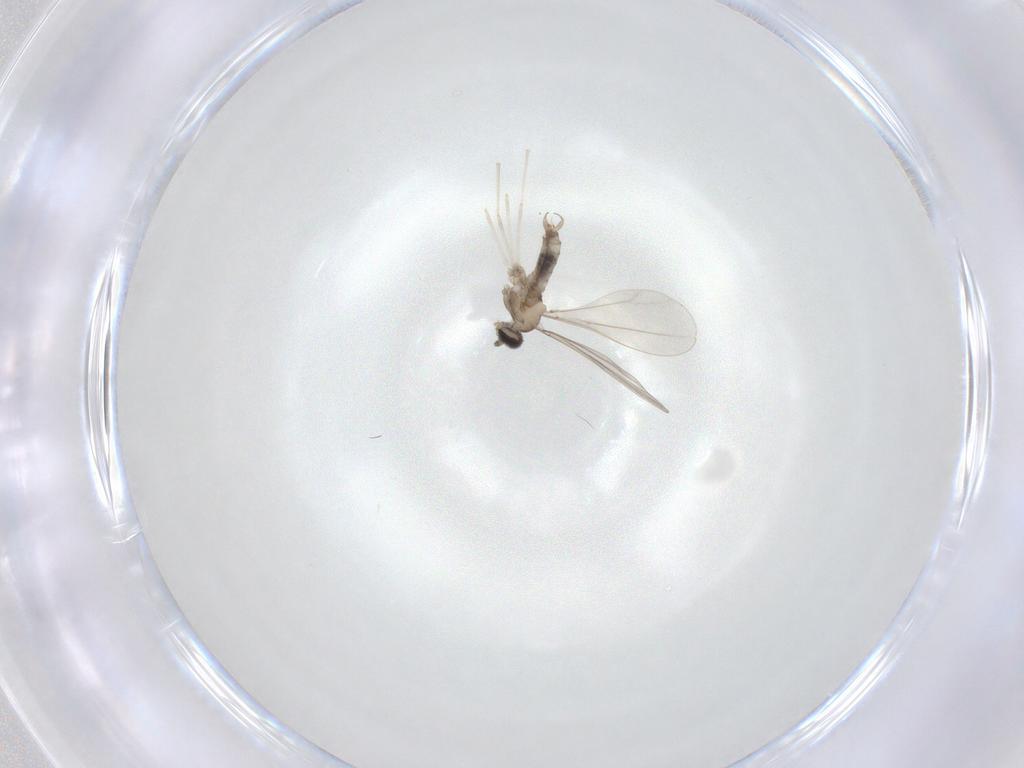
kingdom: Animalia
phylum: Arthropoda
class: Insecta
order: Diptera
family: Cecidomyiidae
